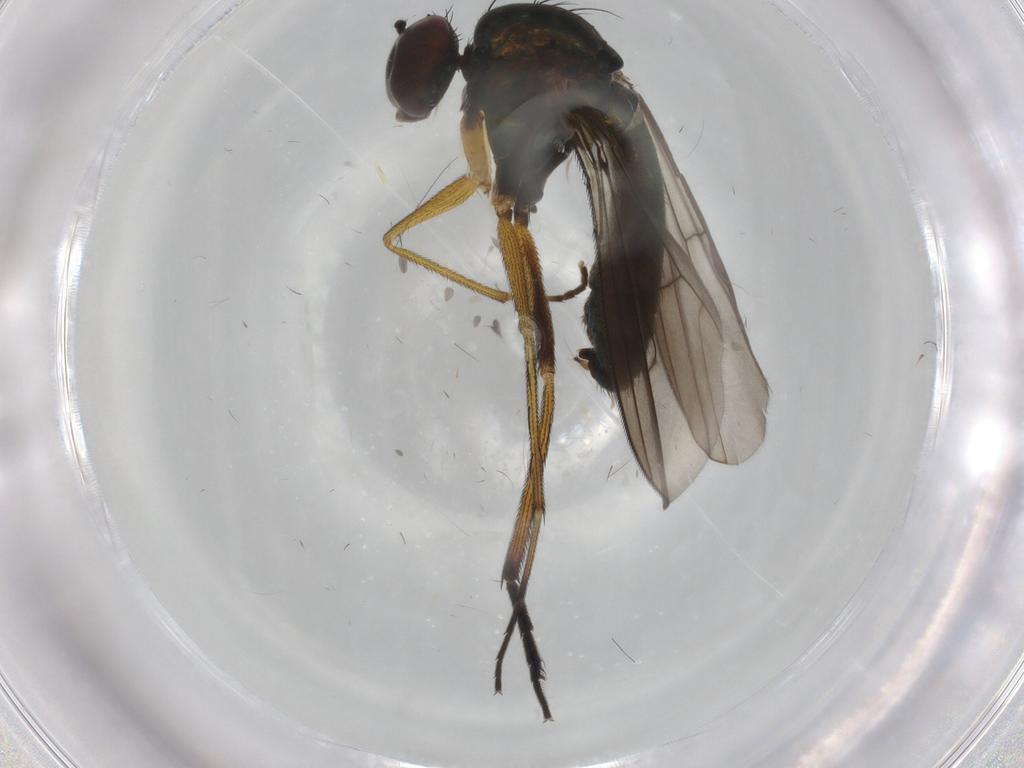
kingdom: Animalia
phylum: Arthropoda
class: Insecta
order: Diptera
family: Dolichopodidae
